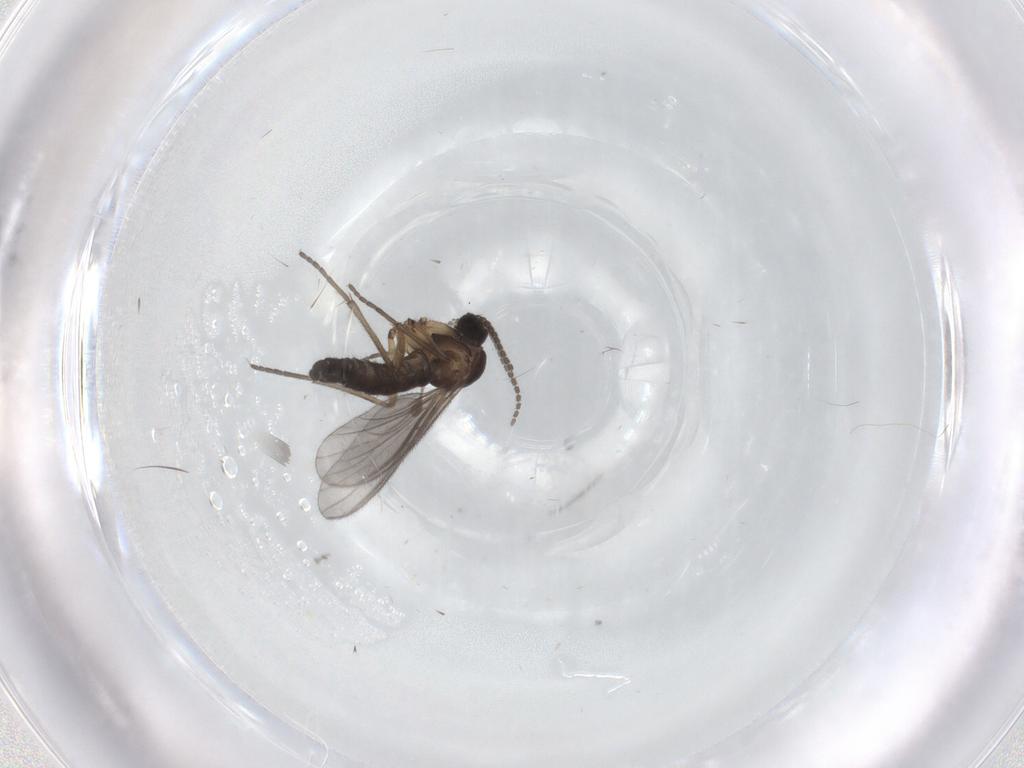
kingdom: Animalia
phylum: Arthropoda
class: Insecta
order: Diptera
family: Sciaridae
